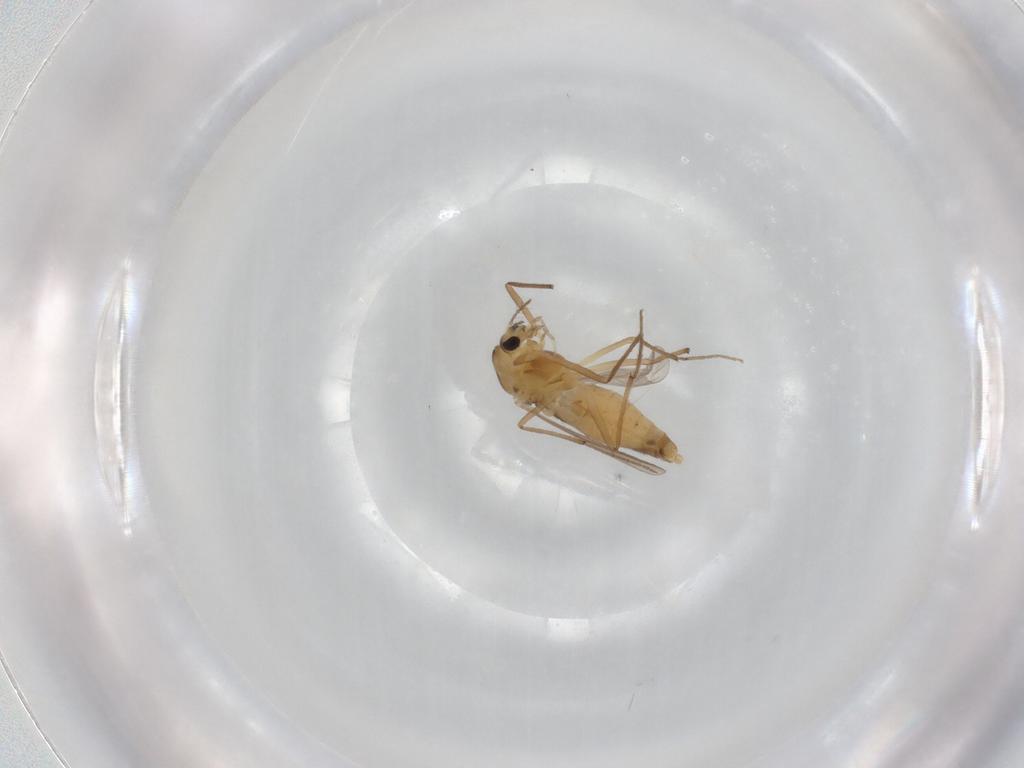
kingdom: Animalia
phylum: Arthropoda
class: Insecta
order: Diptera
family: Chironomidae
